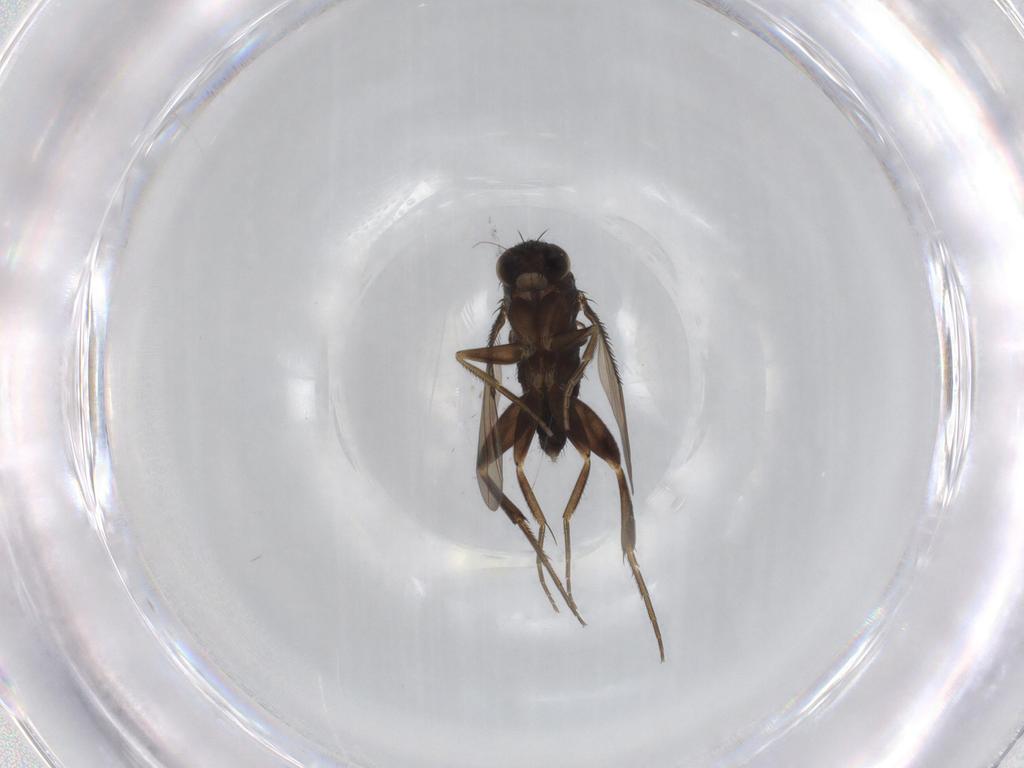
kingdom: Animalia
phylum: Arthropoda
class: Insecta
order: Diptera
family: Phoridae
